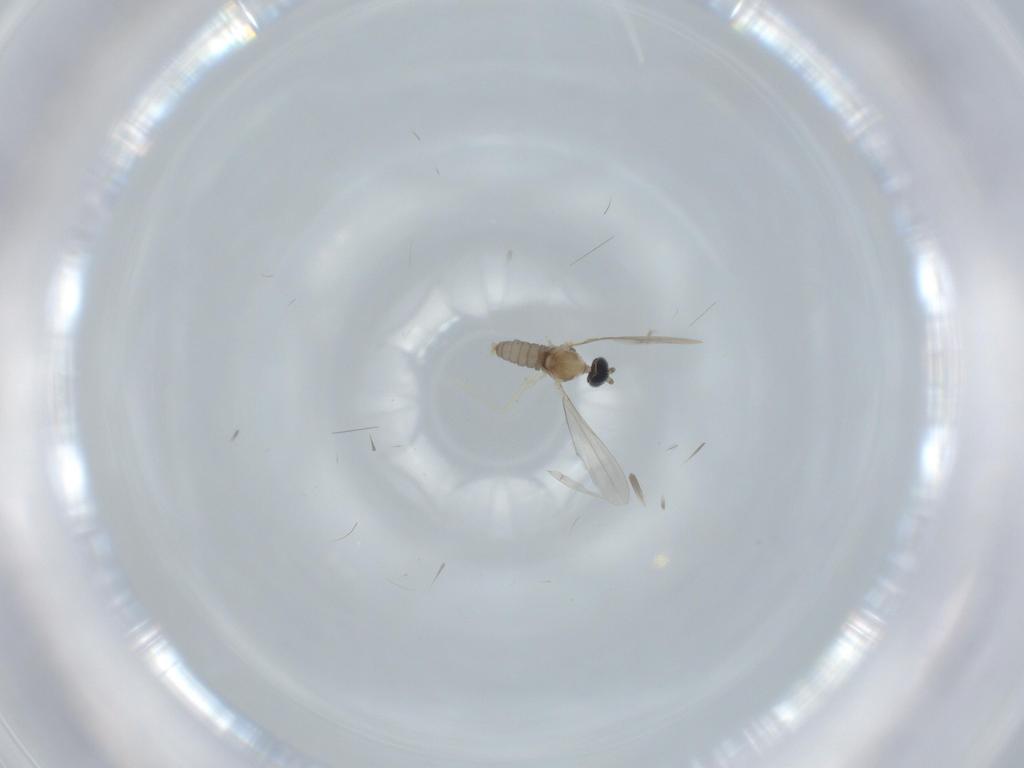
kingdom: Animalia
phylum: Arthropoda
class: Insecta
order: Diptera
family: Cecidomyiidae
